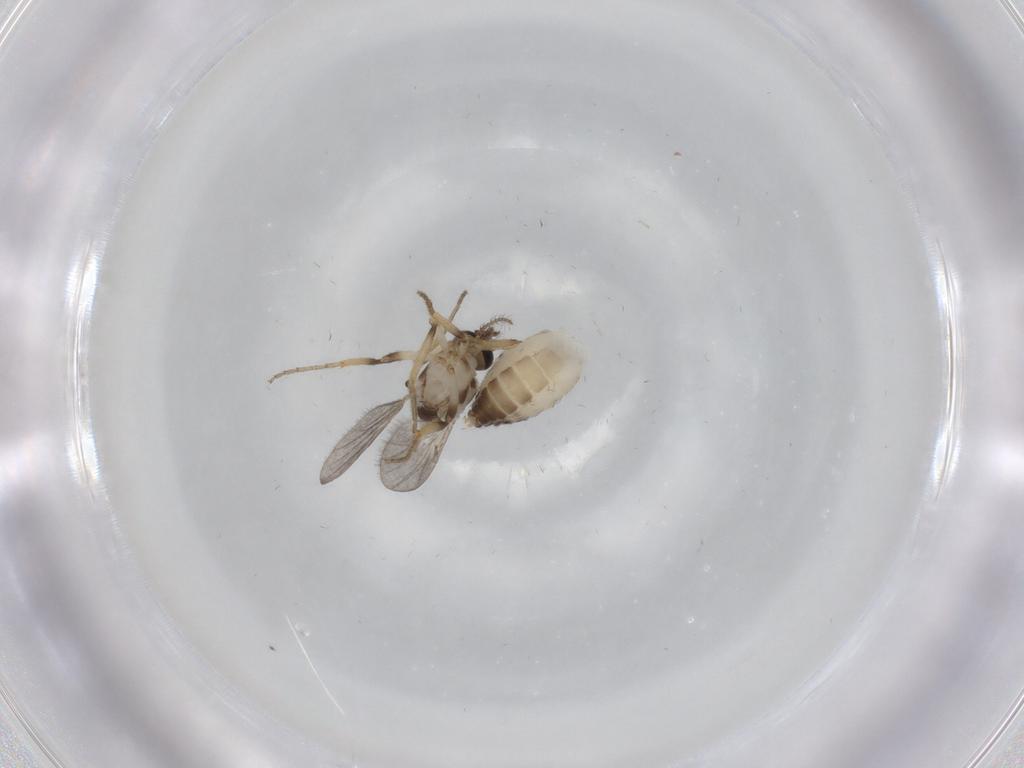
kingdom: Animalia
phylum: Arthropoda
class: Insecta
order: Diptera
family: Ceratopogonidae
